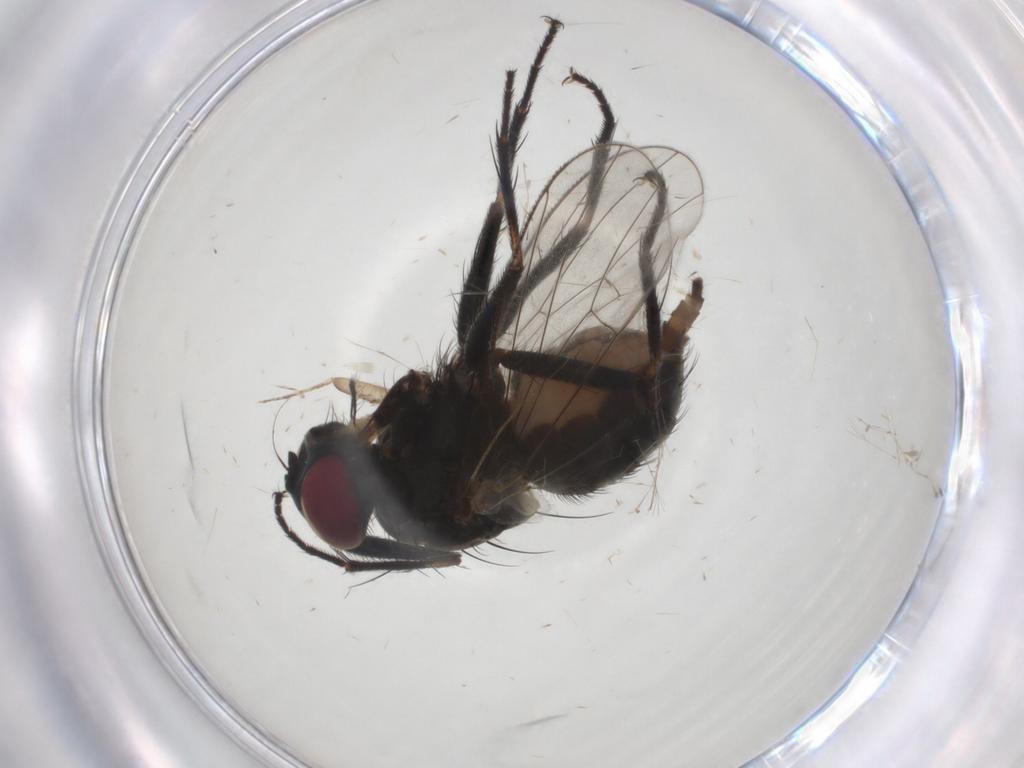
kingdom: Animalia
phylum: Arthropoda
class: Insecta
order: Diptera
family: Muscidae
